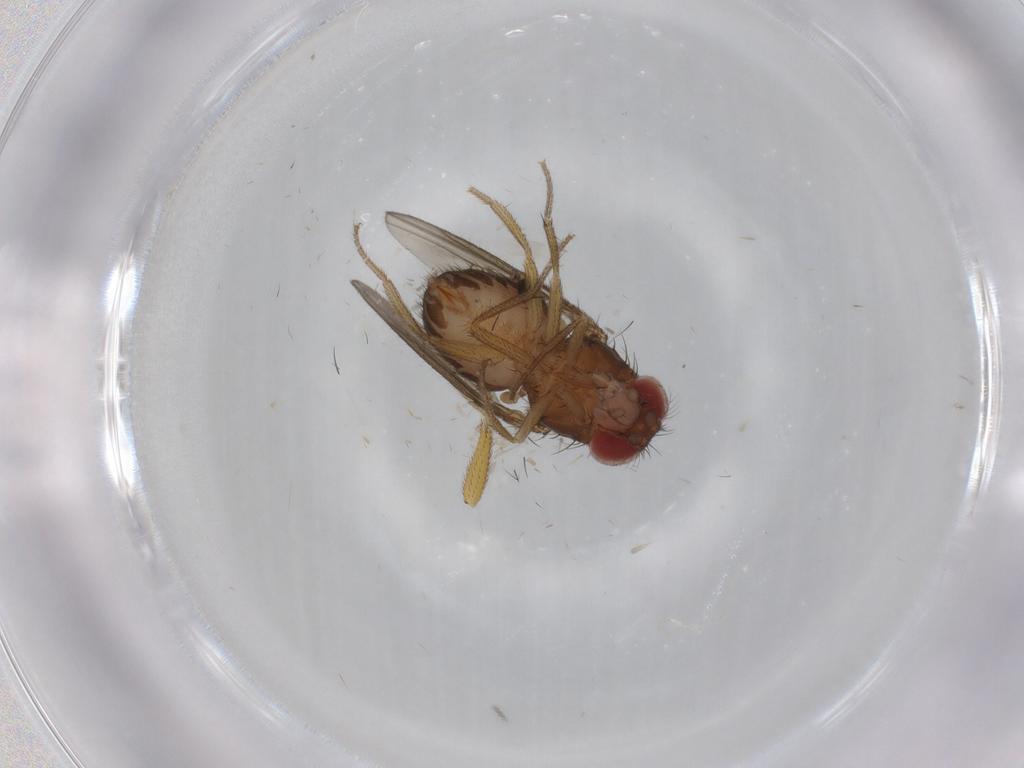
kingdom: Animalia
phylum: Arthropoda
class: Insecta
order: Diptera
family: Drosophilidae
